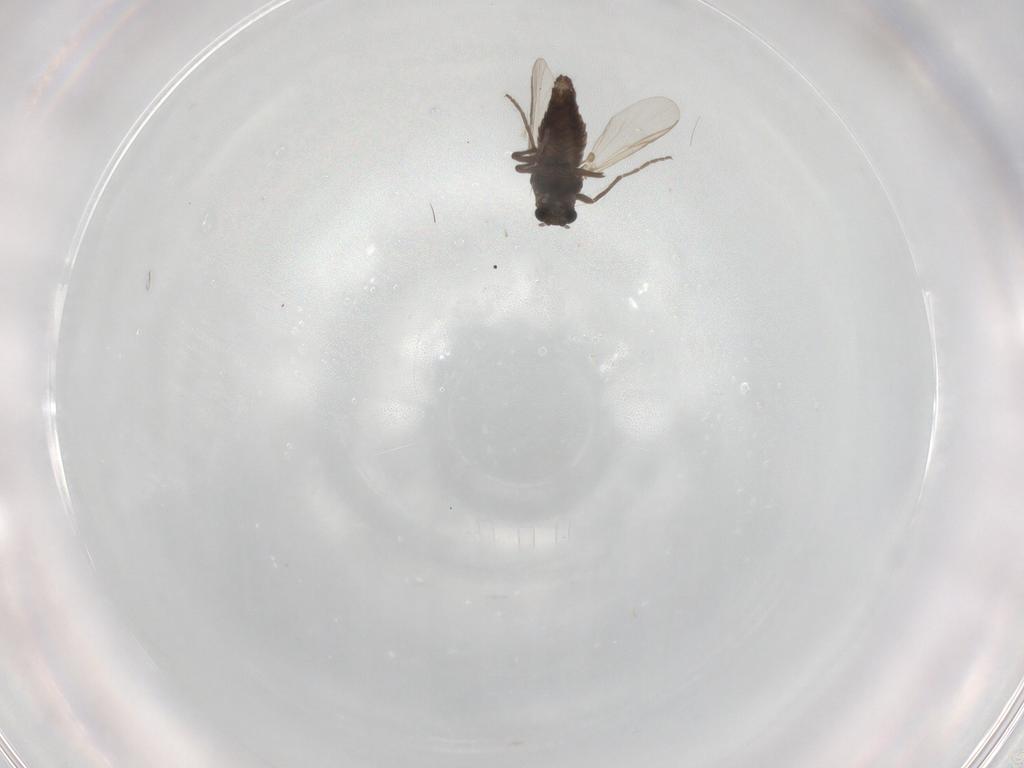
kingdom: Animalia
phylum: Arthropoda
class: Insecta
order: Diptera
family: Chironomidae
